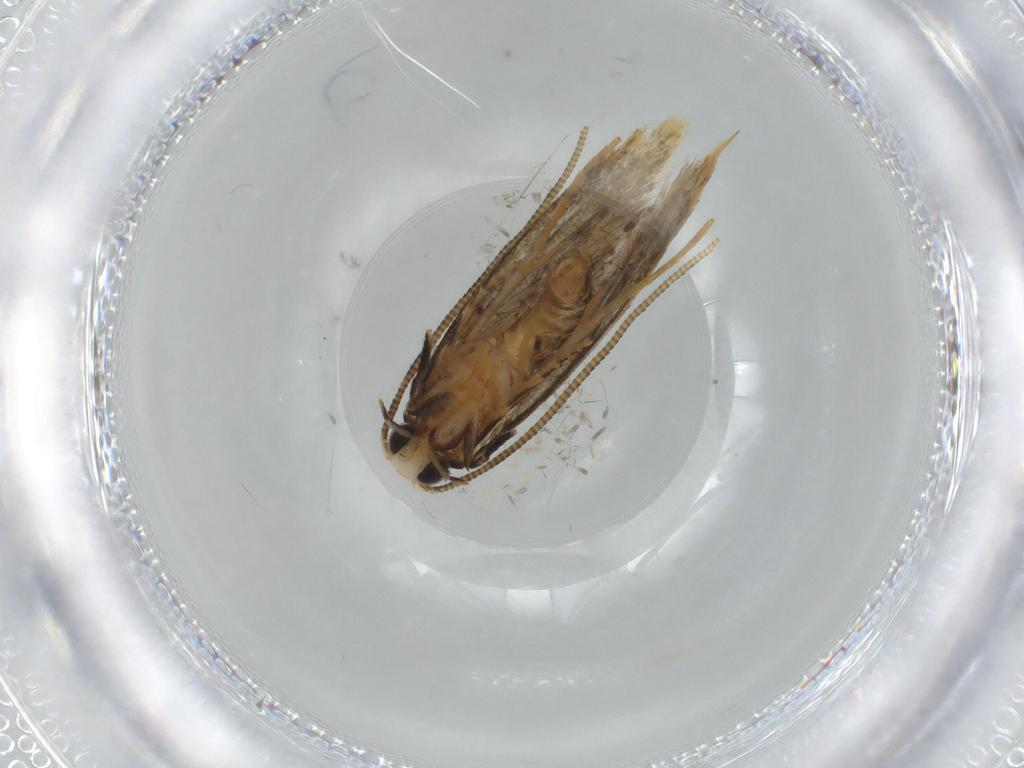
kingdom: Animalia
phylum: Arthropoda
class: Insecta
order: Lepidoptera
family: Tineidae
